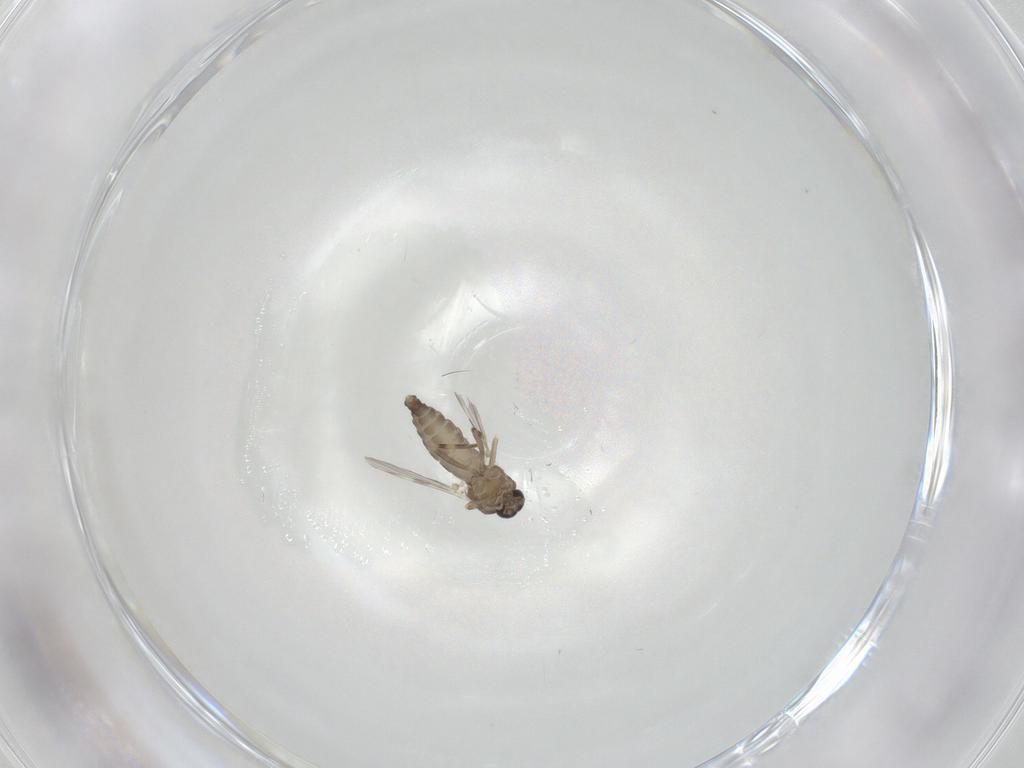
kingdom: Animalia
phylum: Arthropoda
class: Insecta
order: Diptera
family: Ceratopogonidae
